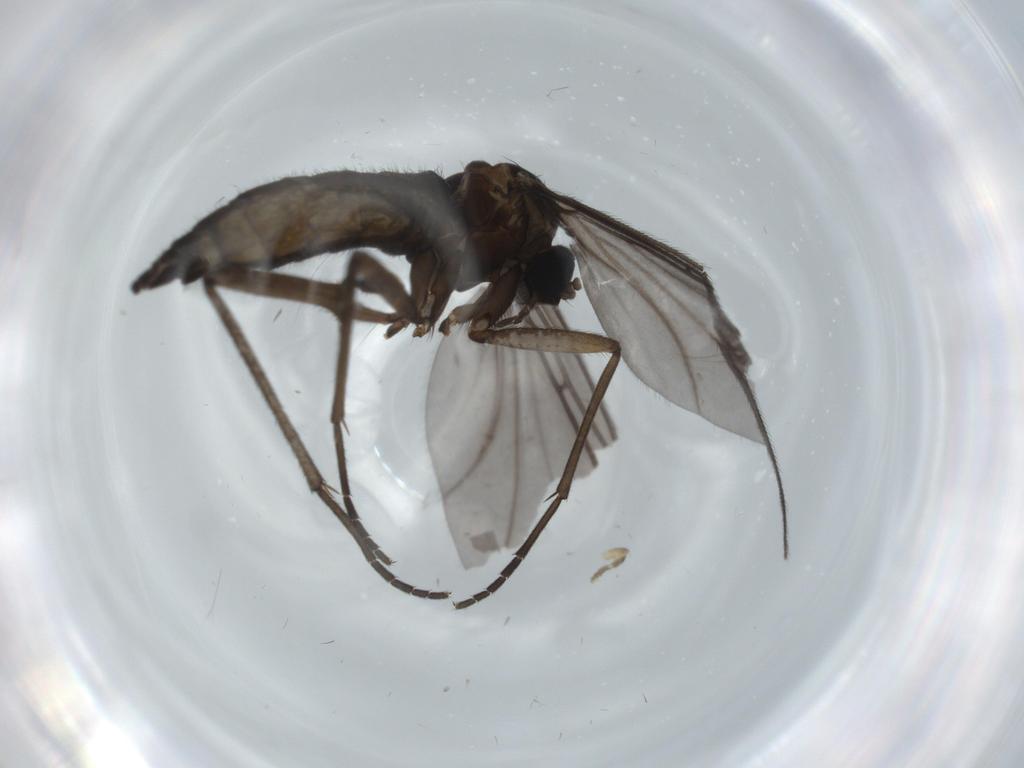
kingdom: Animalia
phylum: Arthropoda
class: Insecta
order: Diptera
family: Sciaridae
